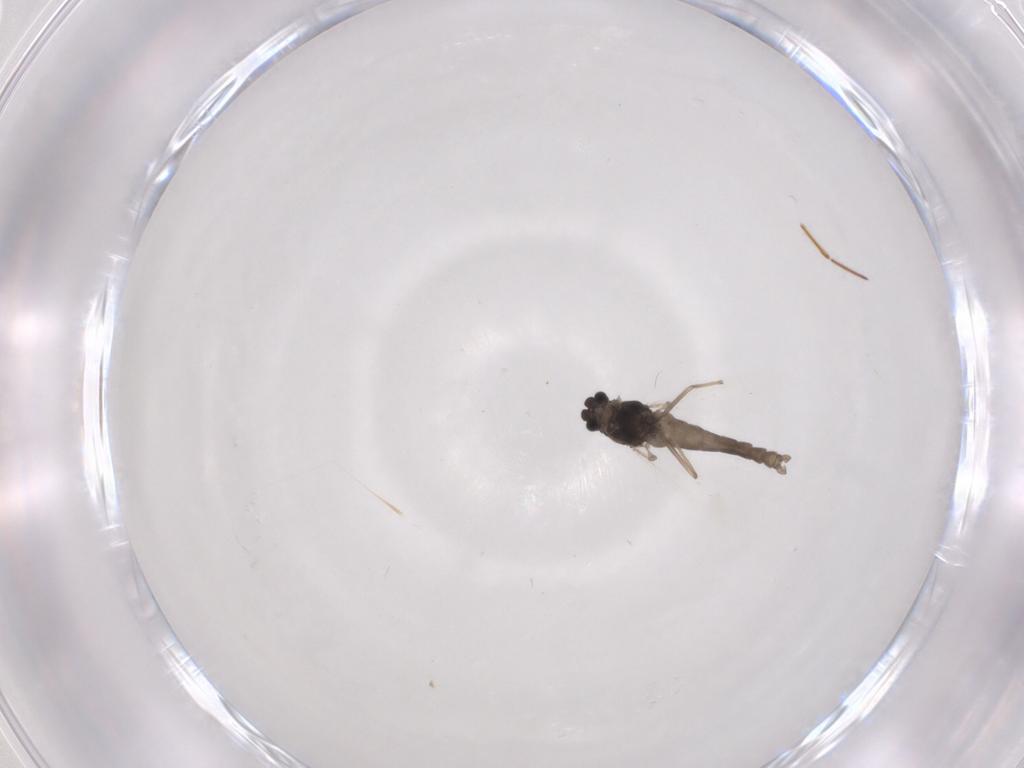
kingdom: Animalia
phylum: Arthropoda
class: Insecta
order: Diptera
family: Chironomidae
